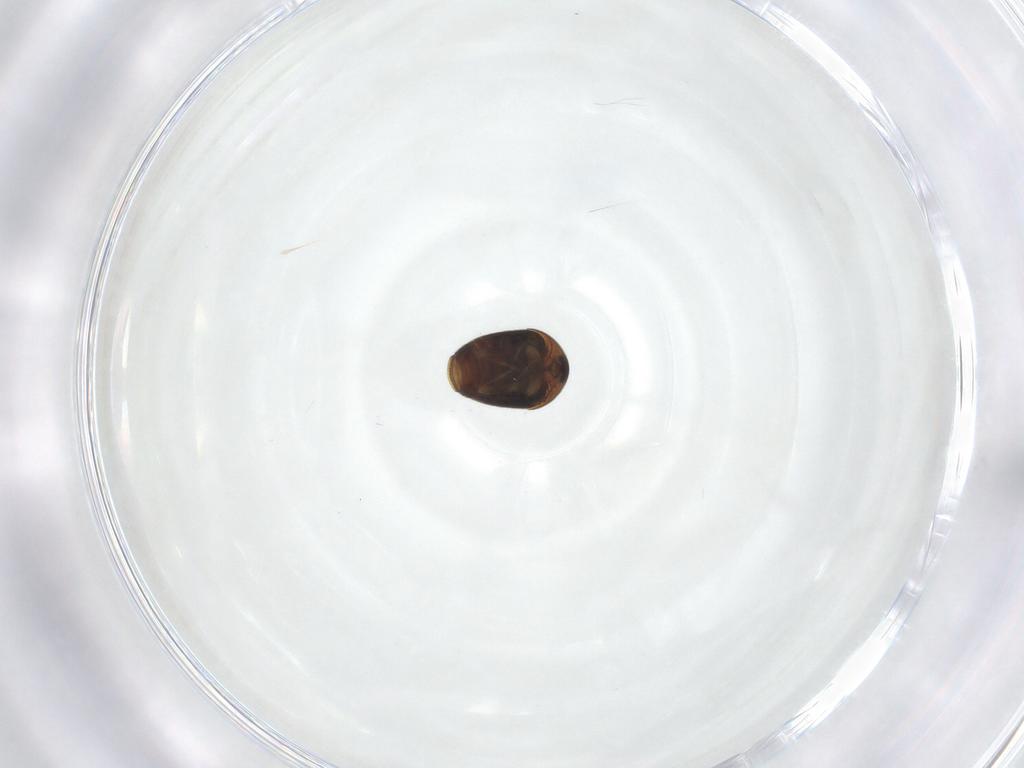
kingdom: Animalia
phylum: Arthropoda
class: Insecta
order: Coleoptera
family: Corylophidae
